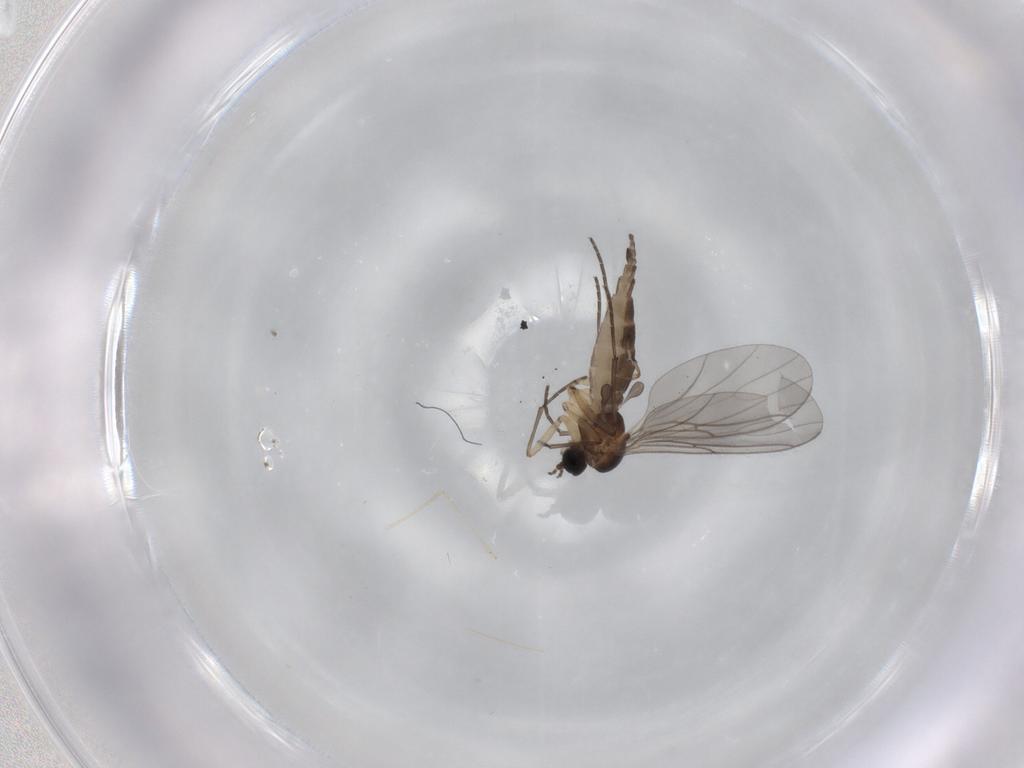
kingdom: Animalia
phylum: Arthropoda
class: Insecta
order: Diptera
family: Sciaridae
